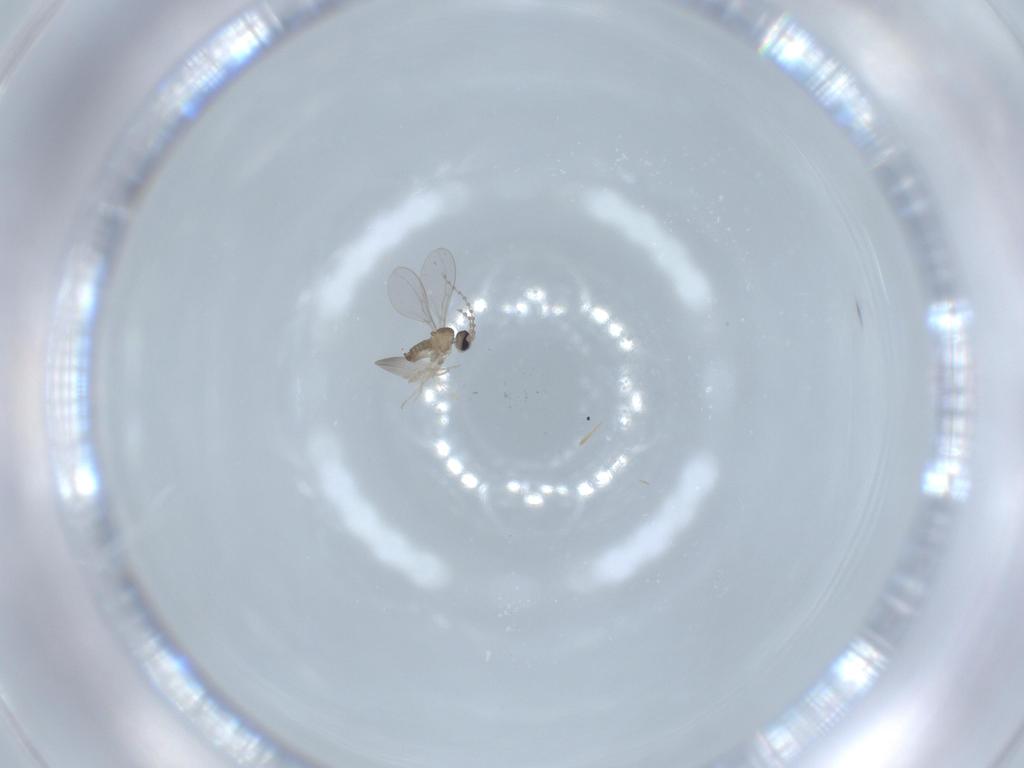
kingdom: Animalia
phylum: Arthropoda
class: Insecta
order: Diptera
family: Cecidomyiidae
